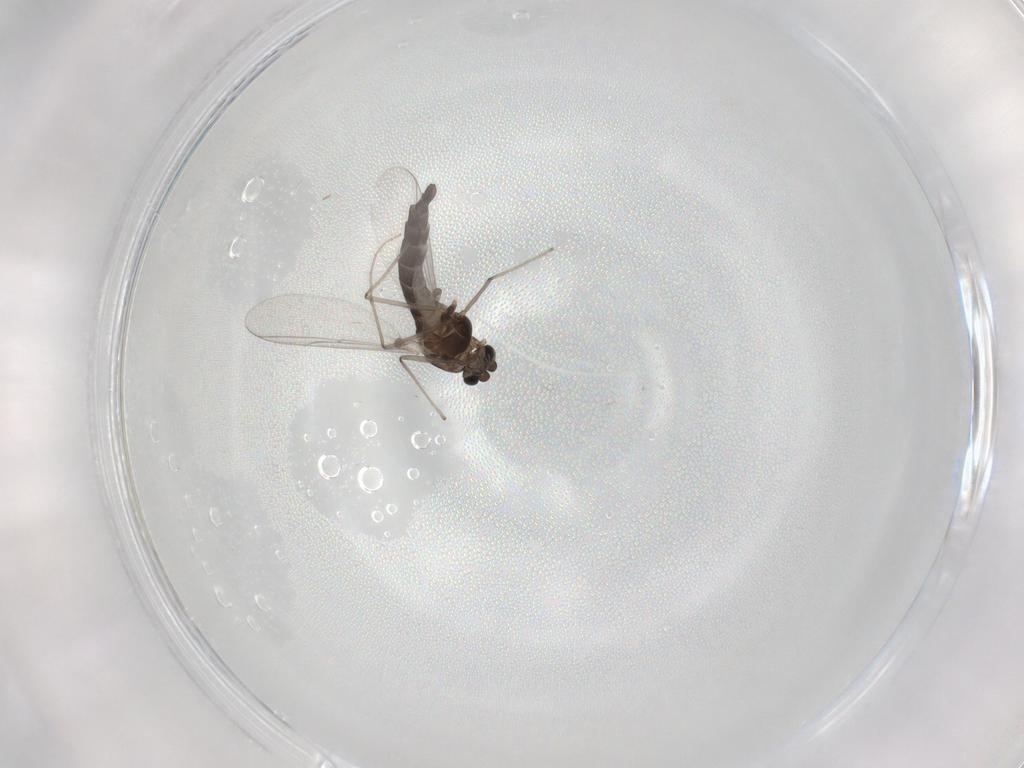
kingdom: Animalia
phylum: Arthropoda
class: Insecta
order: Diptera
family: Chironomidae
